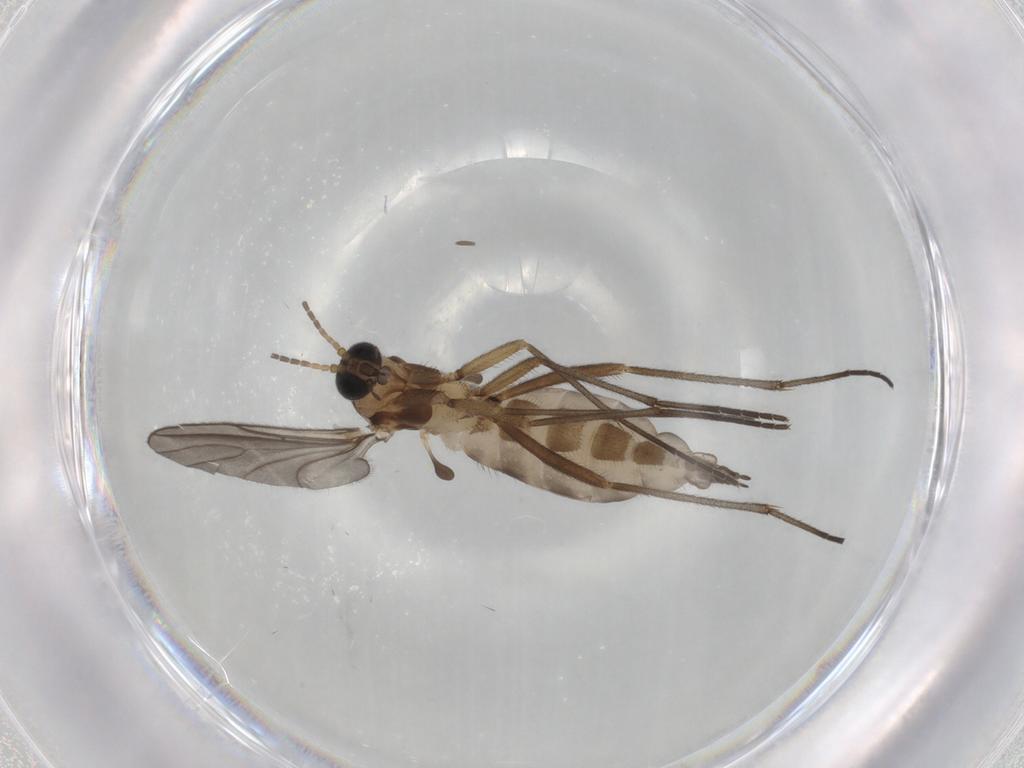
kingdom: Animalia
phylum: Arthropoda
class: Insecta
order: Diptera
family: Sciaridae
